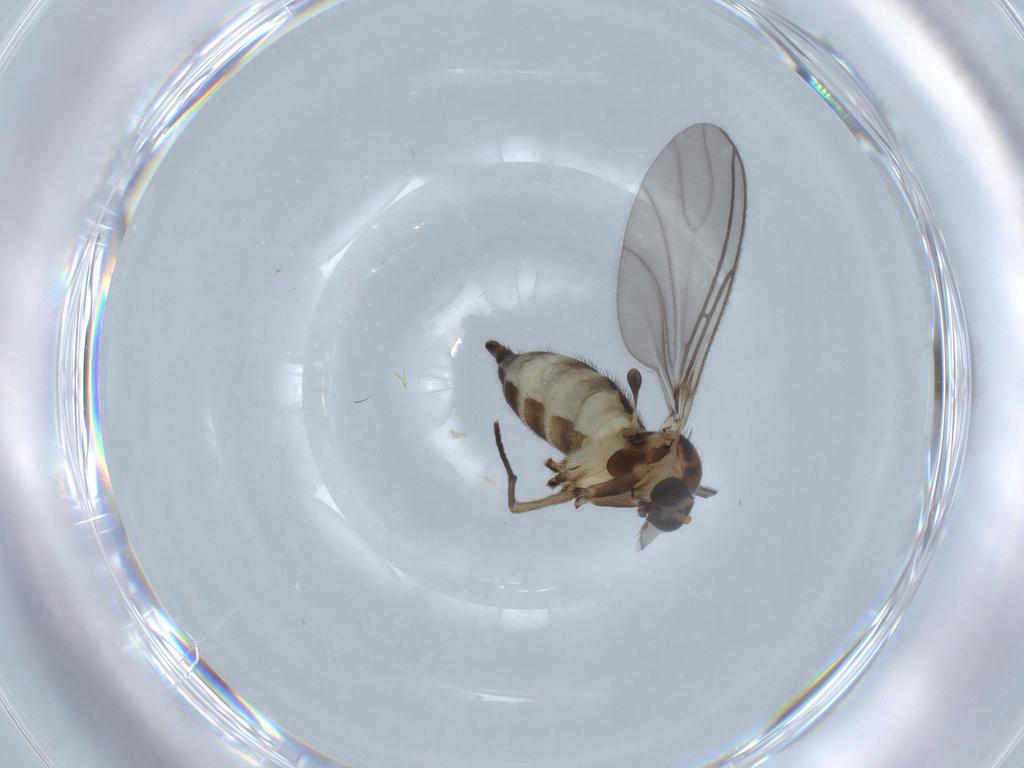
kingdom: Animalia
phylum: Arthropoda
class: Insecta
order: Diptera
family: Sciaridae
